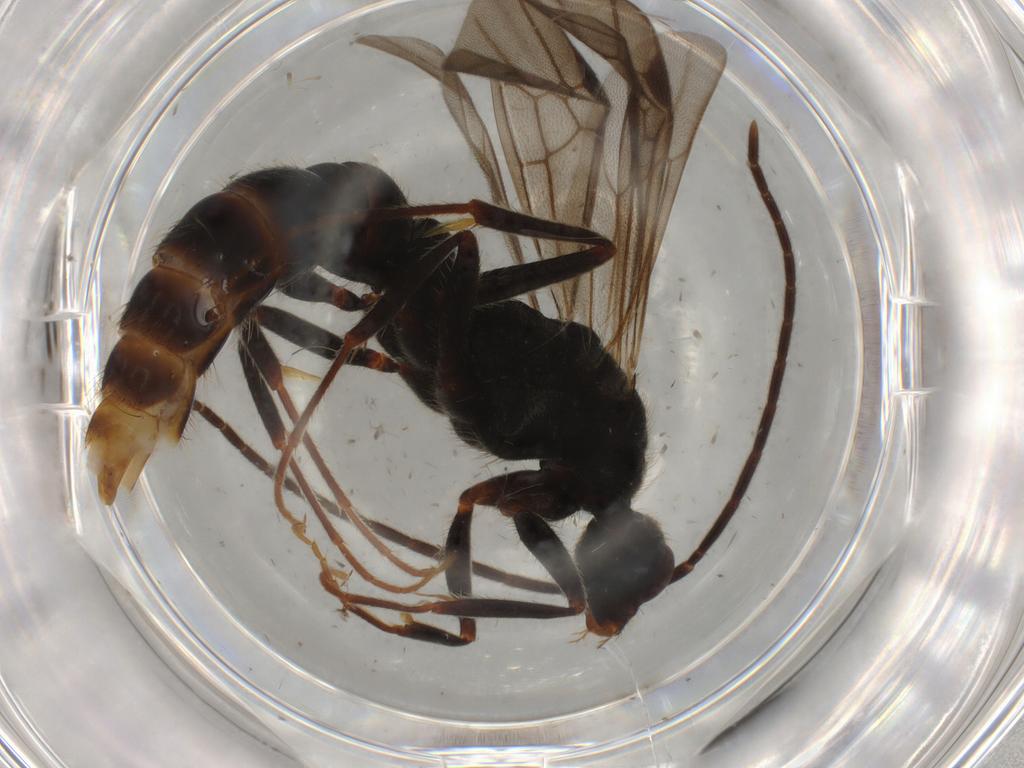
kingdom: Animalia
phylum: Arthropoda
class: Insecta
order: Hymenoptera
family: Formicidae
